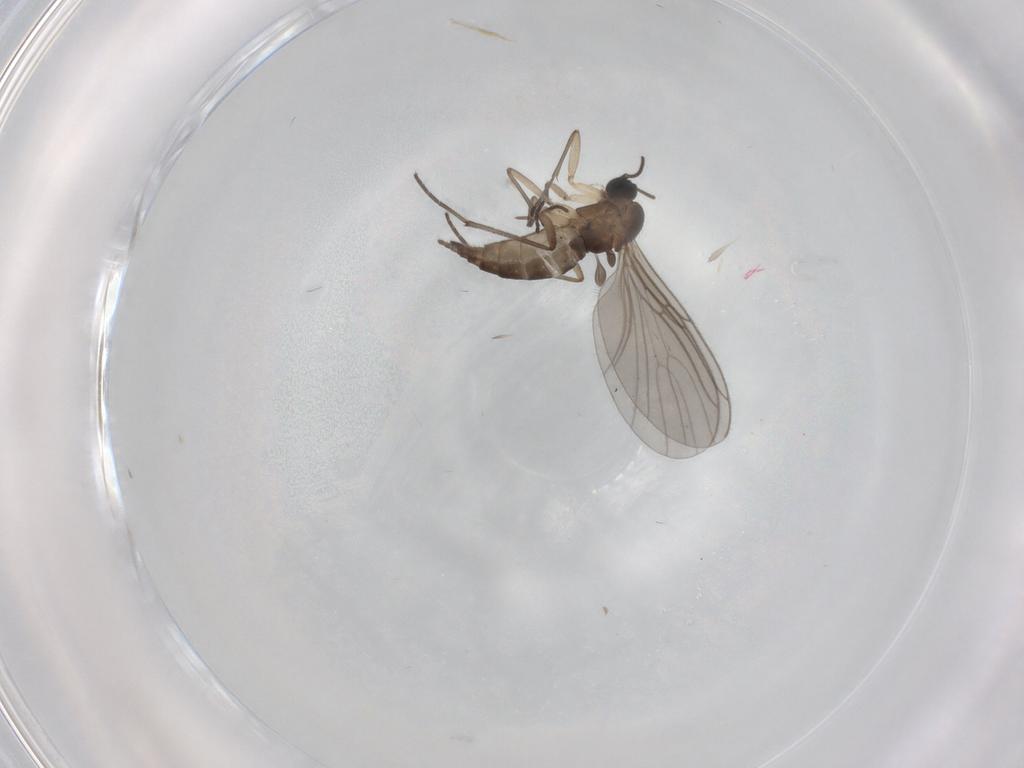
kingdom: Animalia
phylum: Arthropoda
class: Insecta
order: Diptera
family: Sciaridae
